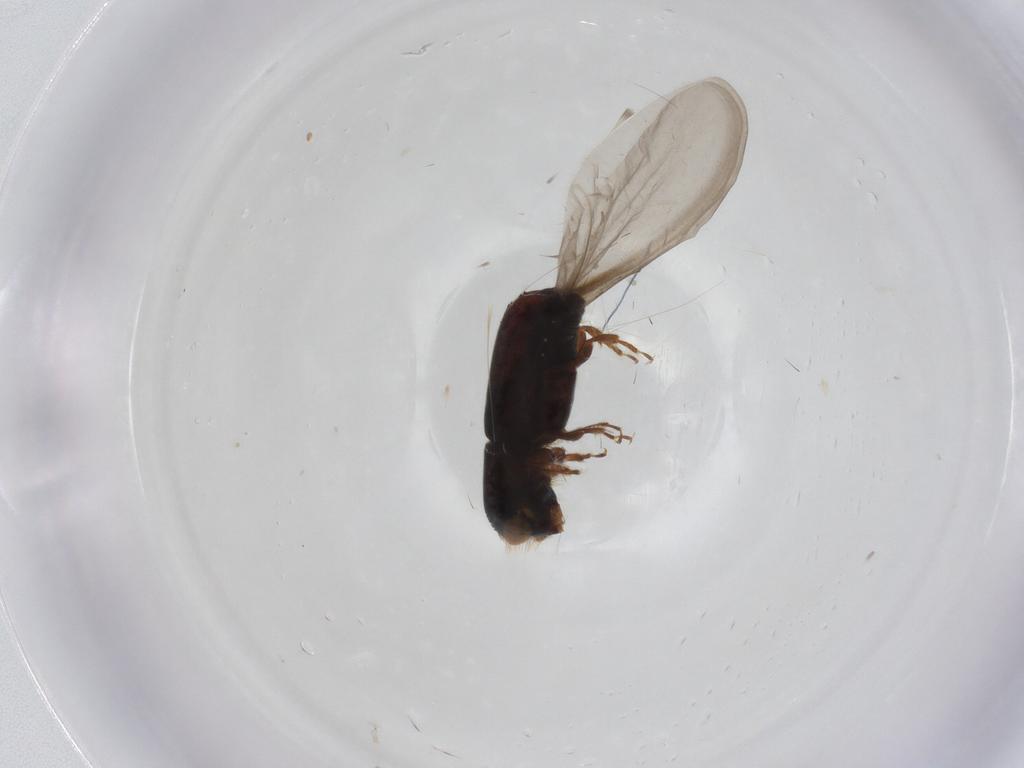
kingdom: Animalia
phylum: Arthropoda
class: Insecta
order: Coleoptera
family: Curculionidae
